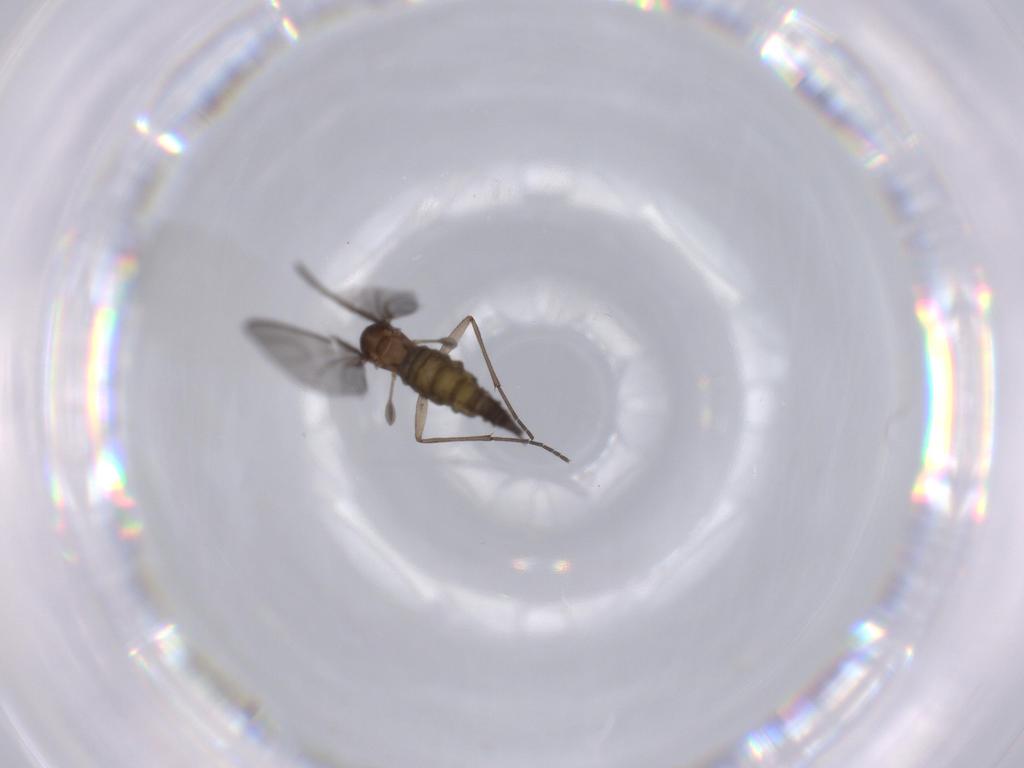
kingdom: Animalia
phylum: Arthropoda
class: Insecta
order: Diptera
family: Sciaridae
